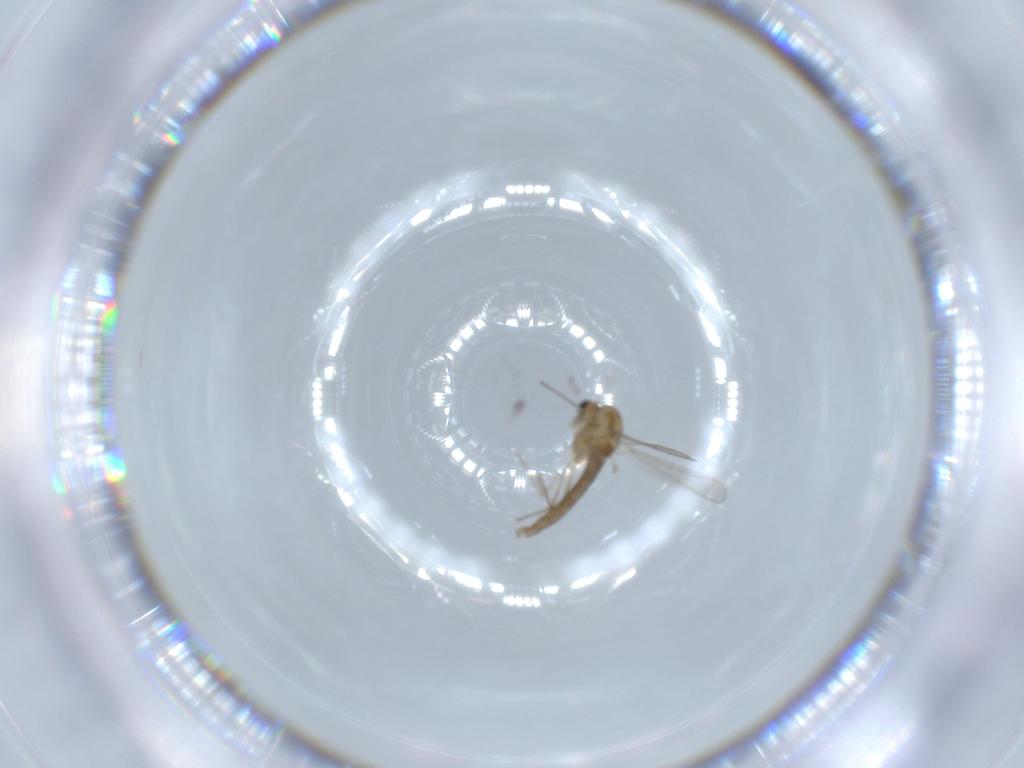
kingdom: Animalia
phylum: Arthropoda
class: Insecta
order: Diptera
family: Chironomidae
